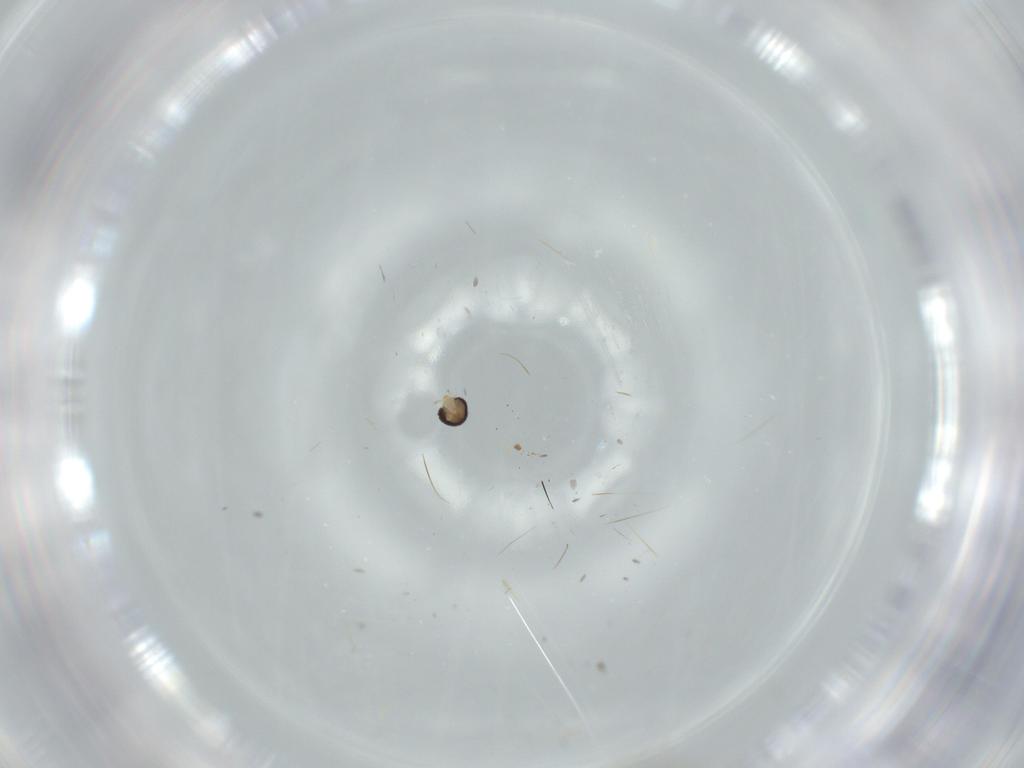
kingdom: Animalia
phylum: Arthropoda
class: Insecta
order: Diptera
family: Cecidomyiidae
